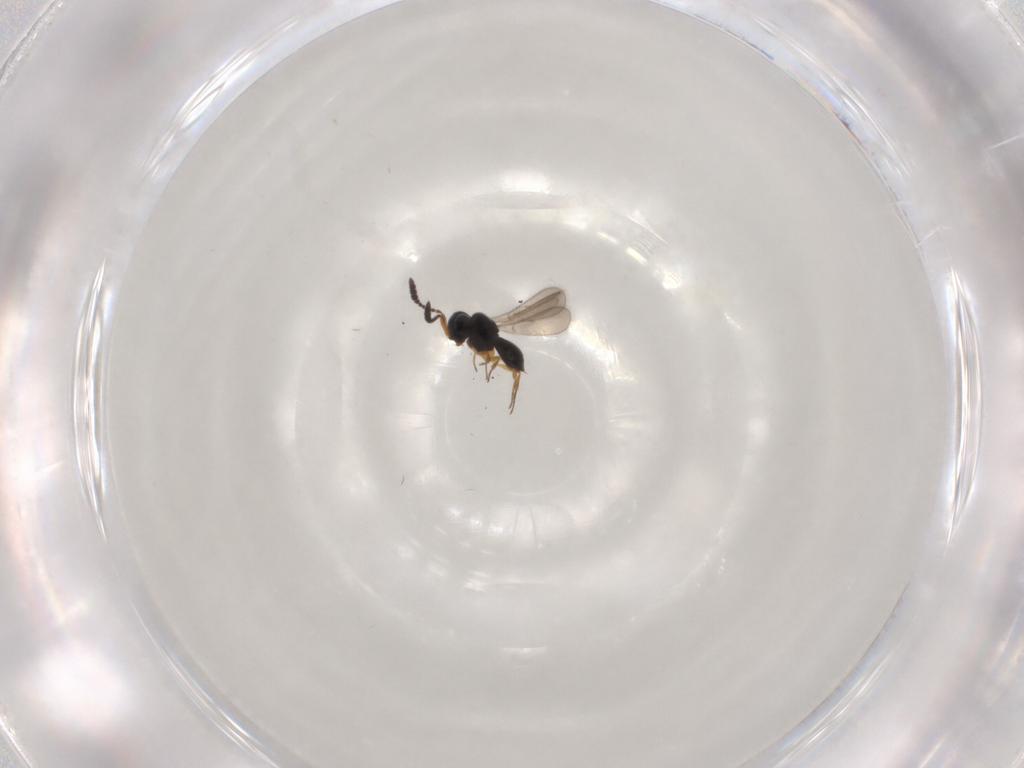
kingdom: Animalia
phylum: Arthropoda
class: Insecta
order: Hymenoptera
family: Scelionidae
